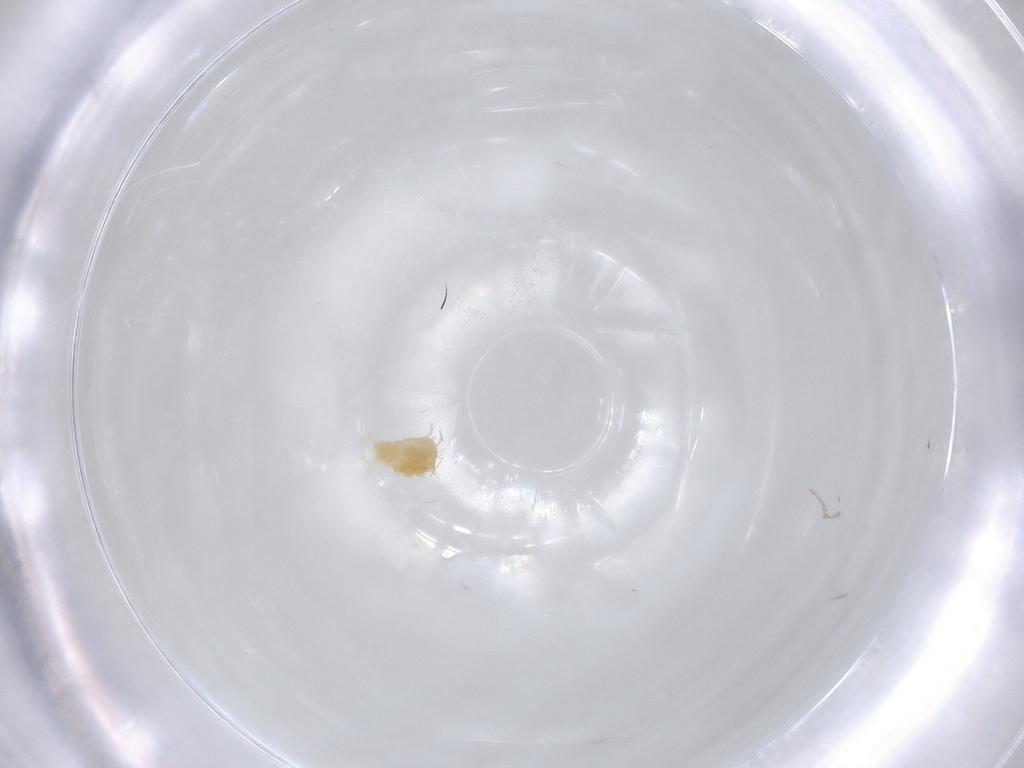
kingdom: Animalia
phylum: Arthropoda
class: Arachnida
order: Trombidiformes
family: Tetranychidae
